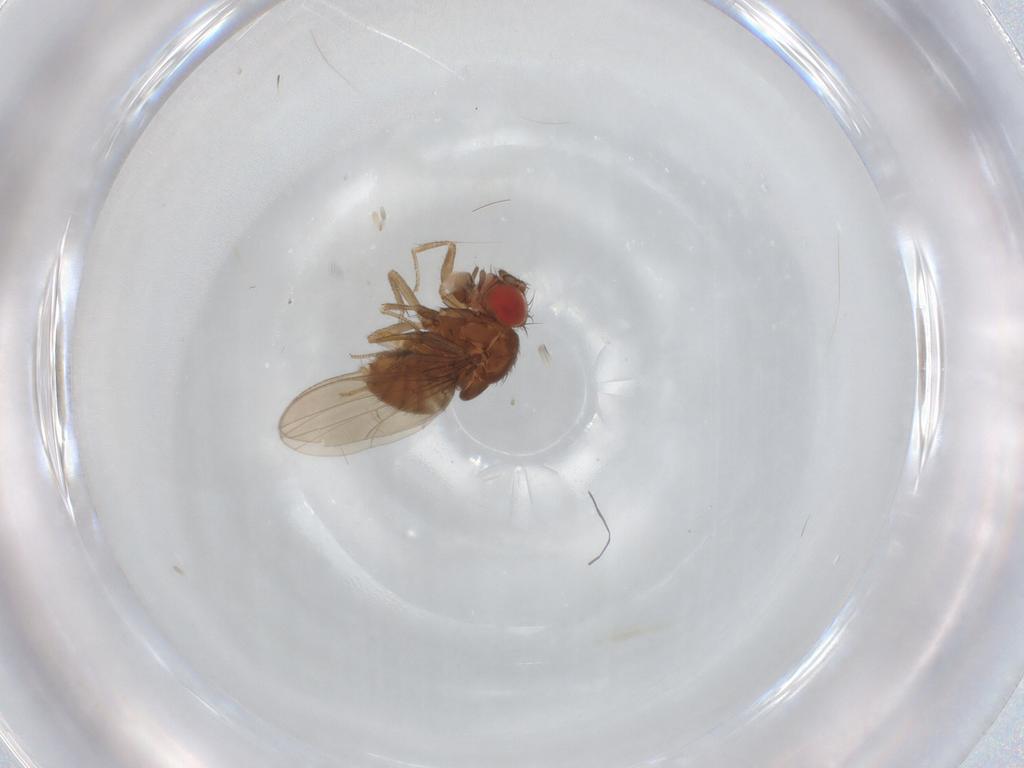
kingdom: Animalia
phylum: Arthropoda
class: Insecta
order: Diptera
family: Drosophilidae
